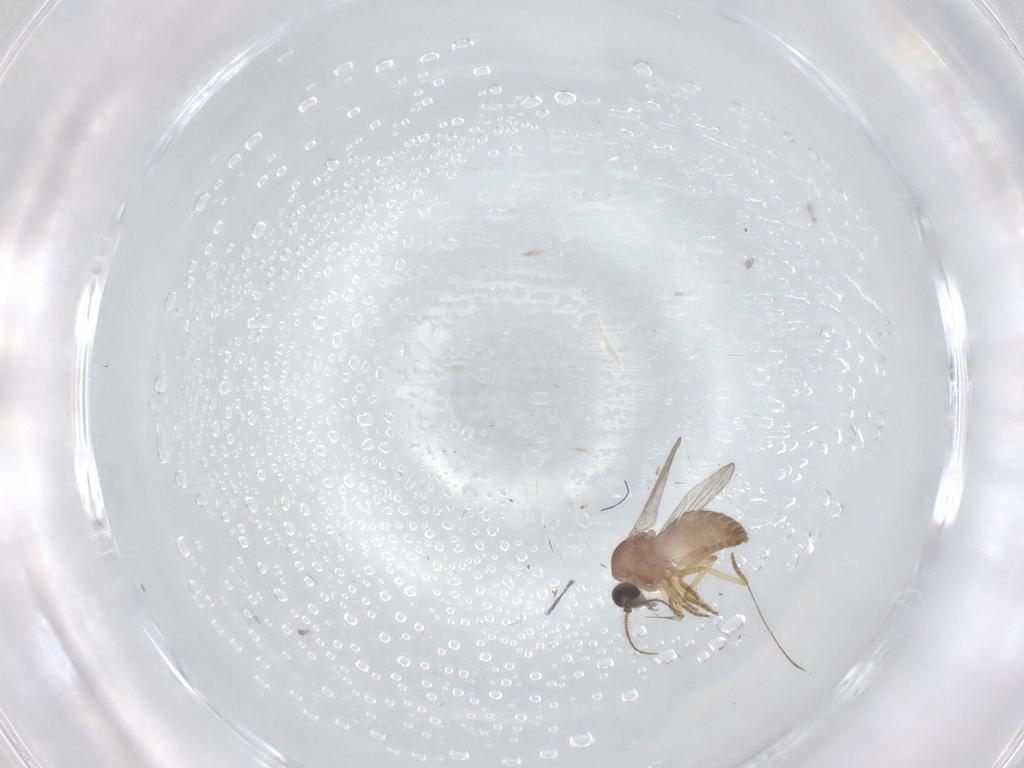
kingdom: Animalia
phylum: Arthropoda
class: Insecta
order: Diptera
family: Ceratopogonidae
